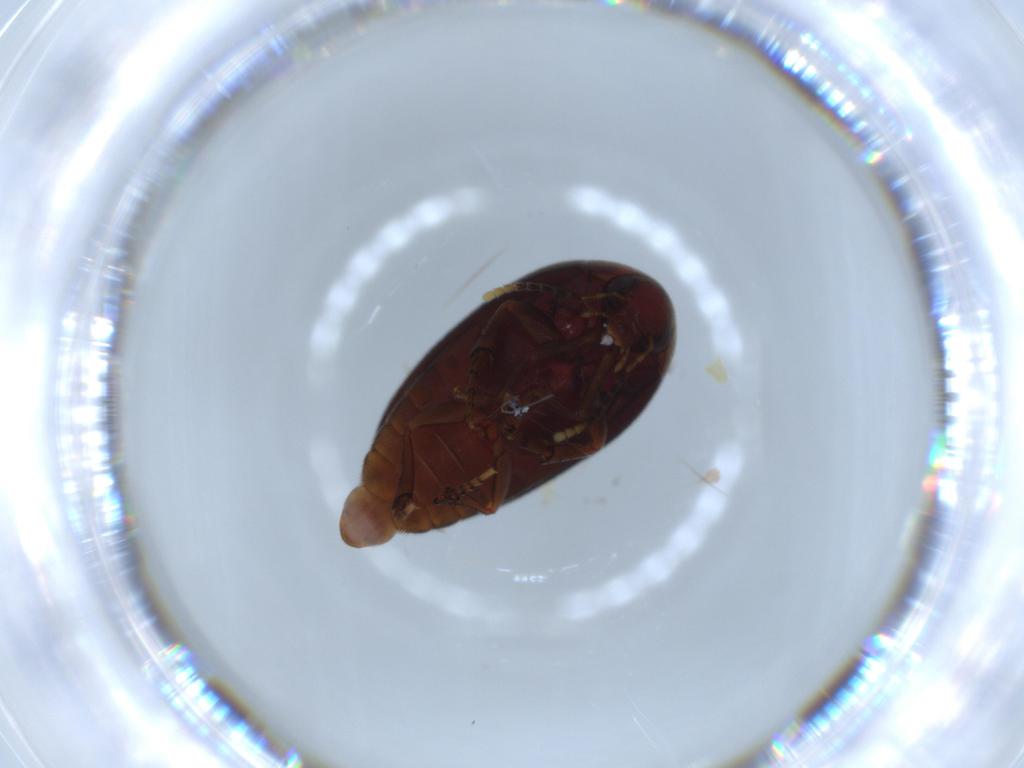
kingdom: Animalia
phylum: Arthropoda
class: Insecta
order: Coleoptera
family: Eucinetidae
